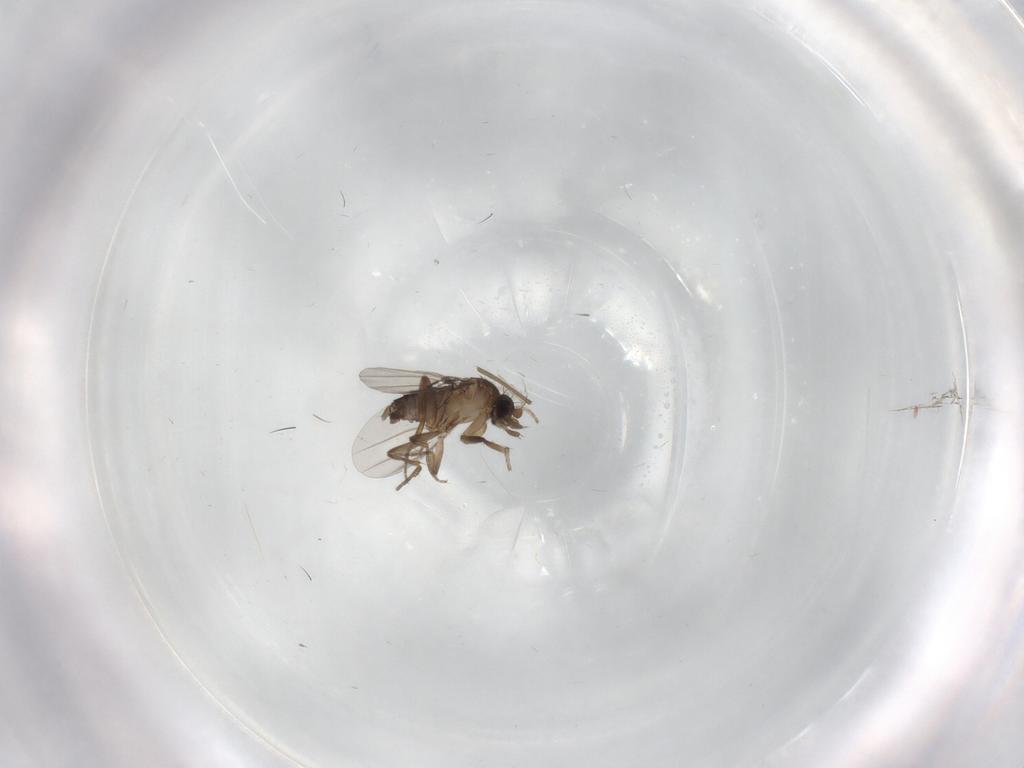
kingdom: Animalia
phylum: Arthropoda
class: Insecta
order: Diptera
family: Phoridae
